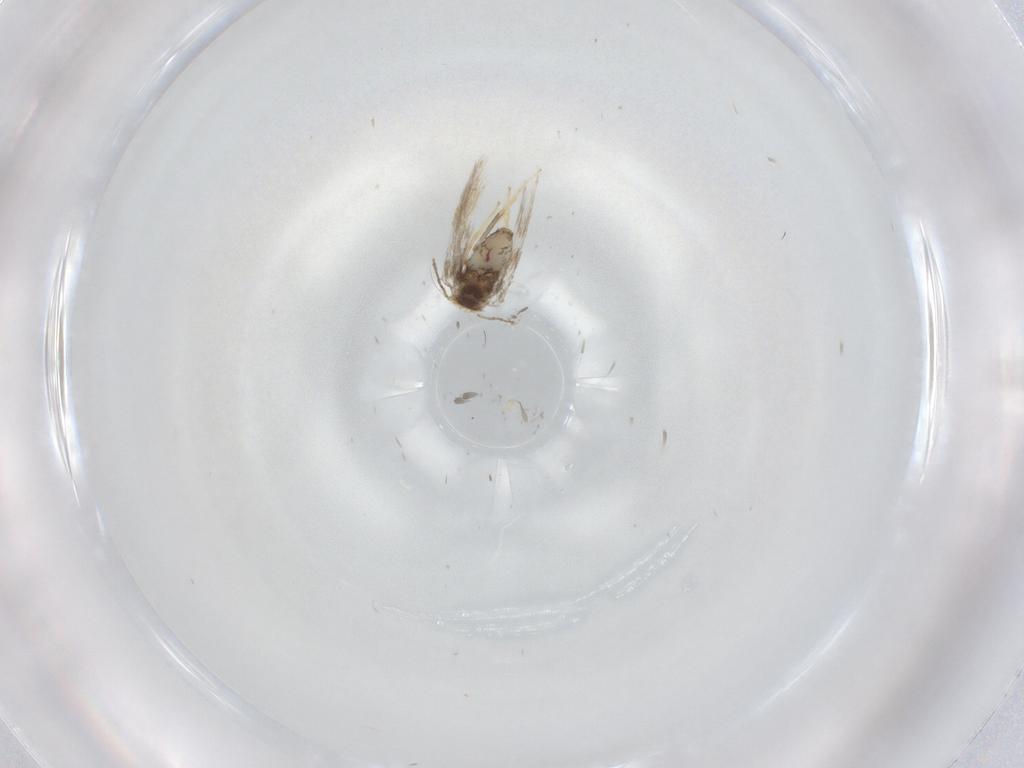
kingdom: Animalia
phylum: Arthropoda
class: Insecta
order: Lepidoptera
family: Nepticulidae
